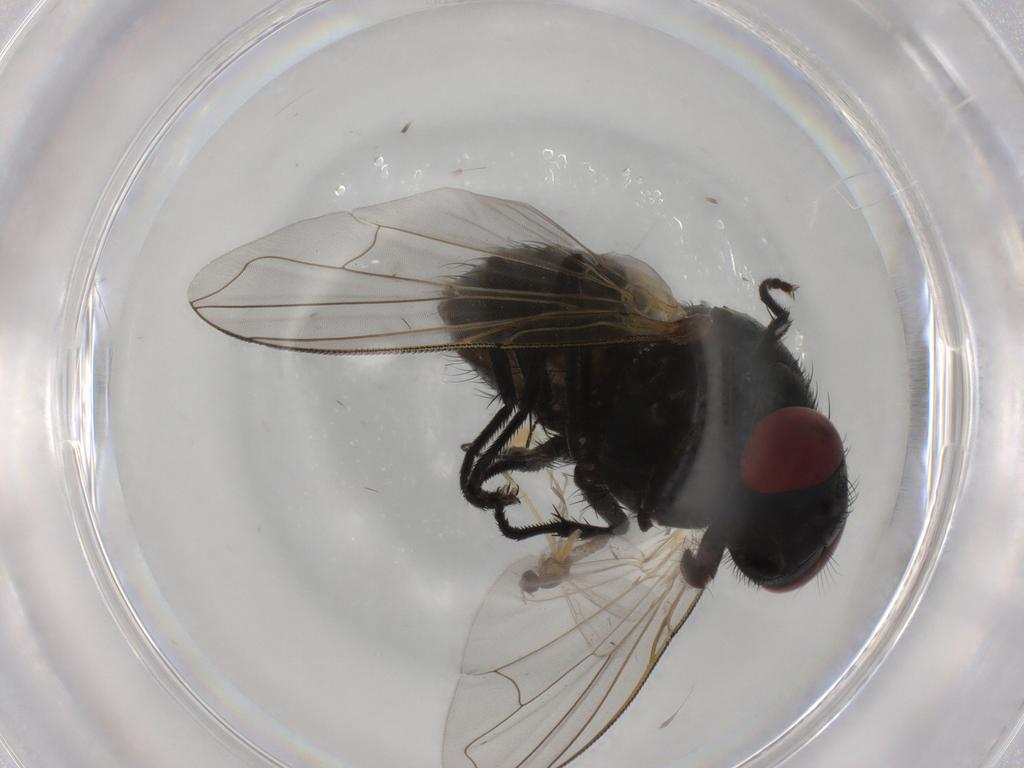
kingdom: Animalia
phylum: Arthropoda
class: Insecta
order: Diptera
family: Muscidae
